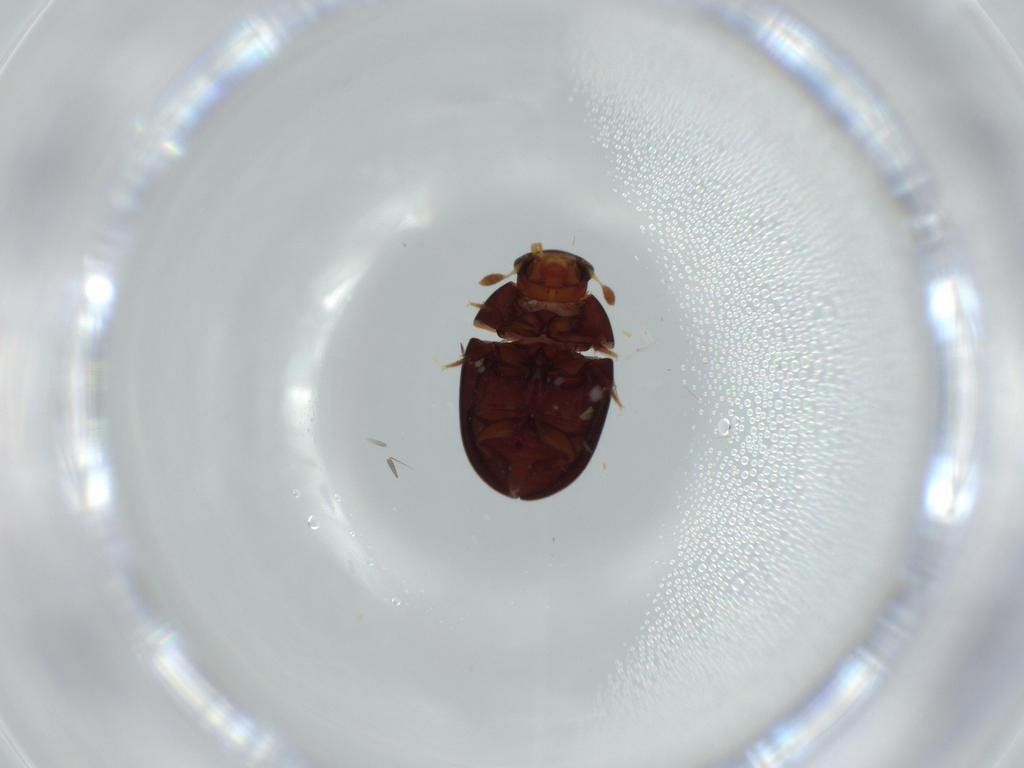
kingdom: Animalia
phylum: Arthropoda
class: Insecta
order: Coleoptera
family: Hydrophilidae
